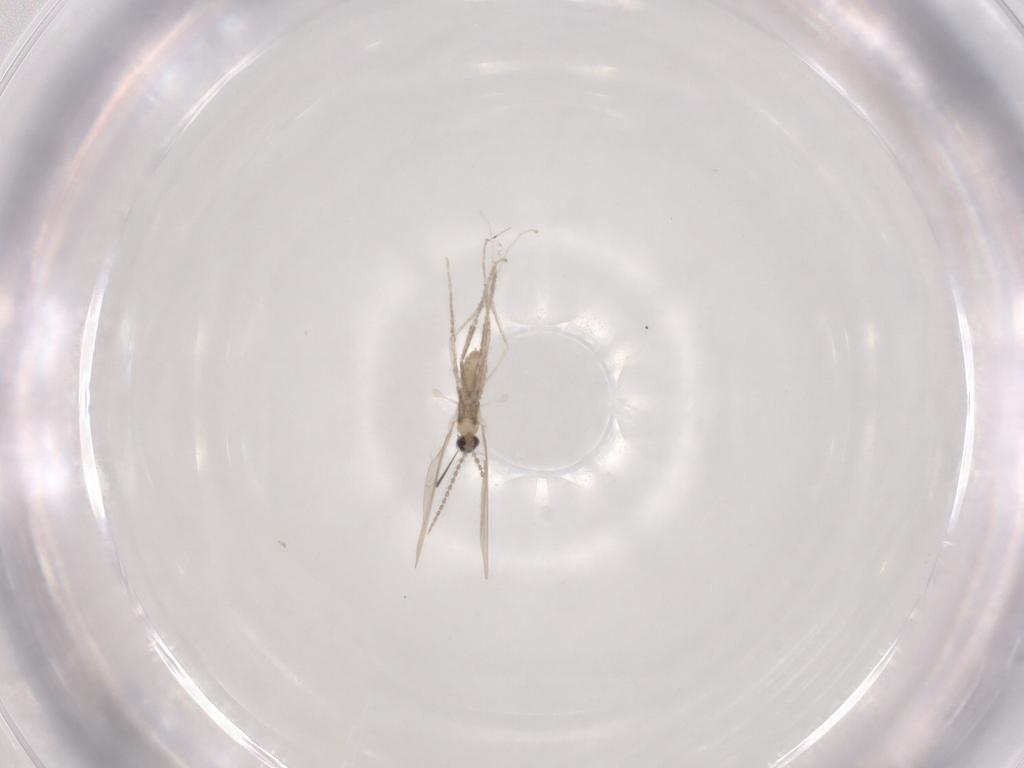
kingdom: Animalia
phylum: Arthropoda
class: Insecta
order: Diptera
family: Cecidomyiidae
